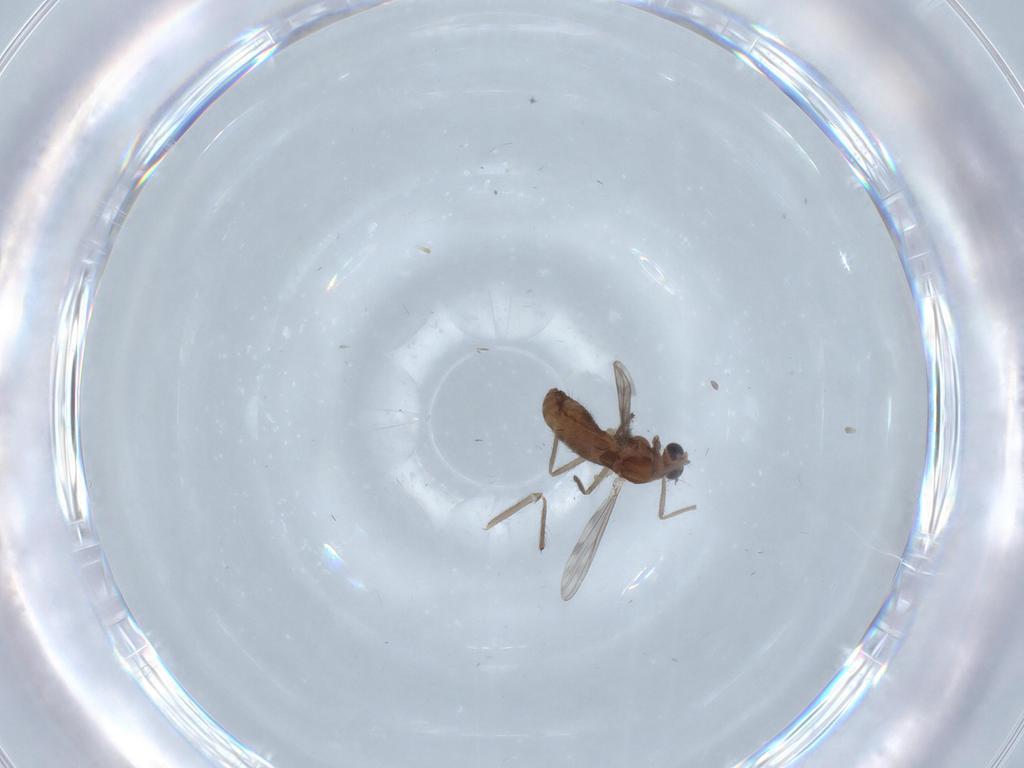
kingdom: Animalia
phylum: Arthropoda
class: Insecta
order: Diptera
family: Chironomidae
